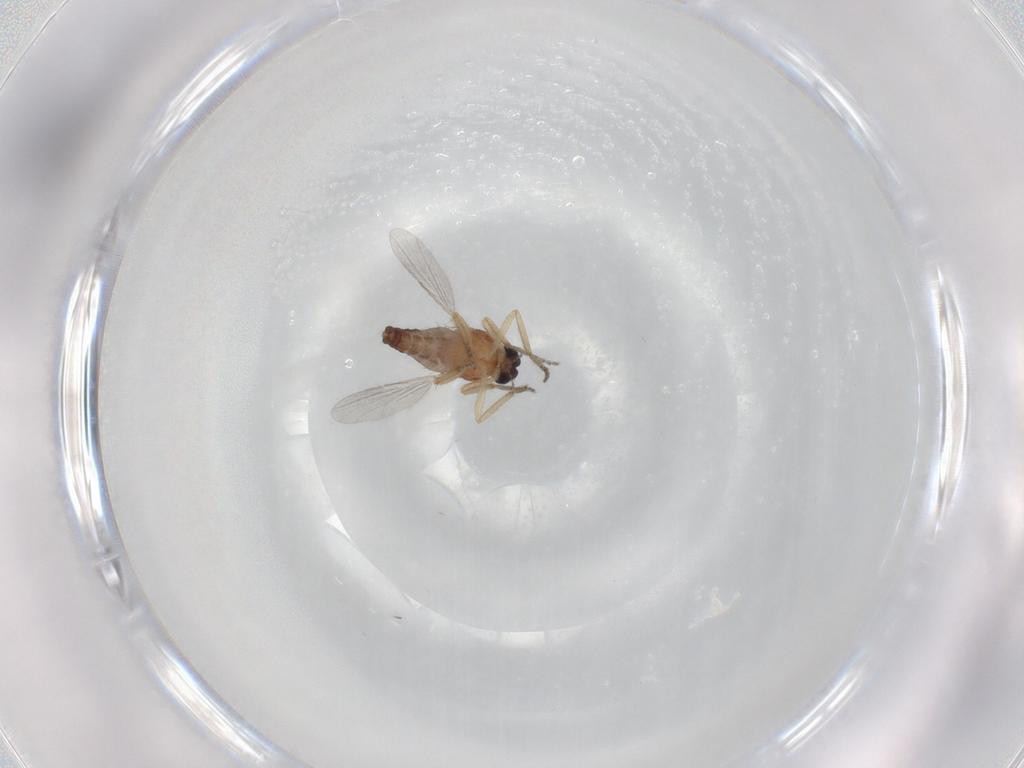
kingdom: Animalia
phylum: Arthropoda
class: Insecta
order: Diptera
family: Ceratopogonidae
